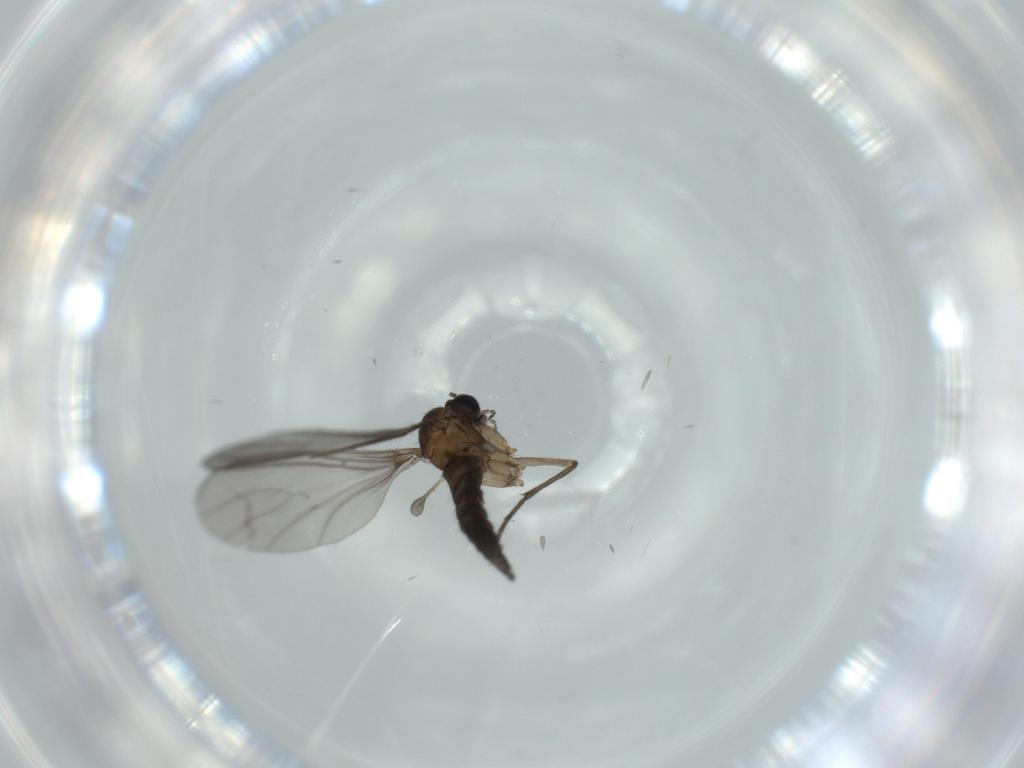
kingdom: Animalia
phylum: Arthropoda
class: Insecta
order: Diptera
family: Sciaridae
